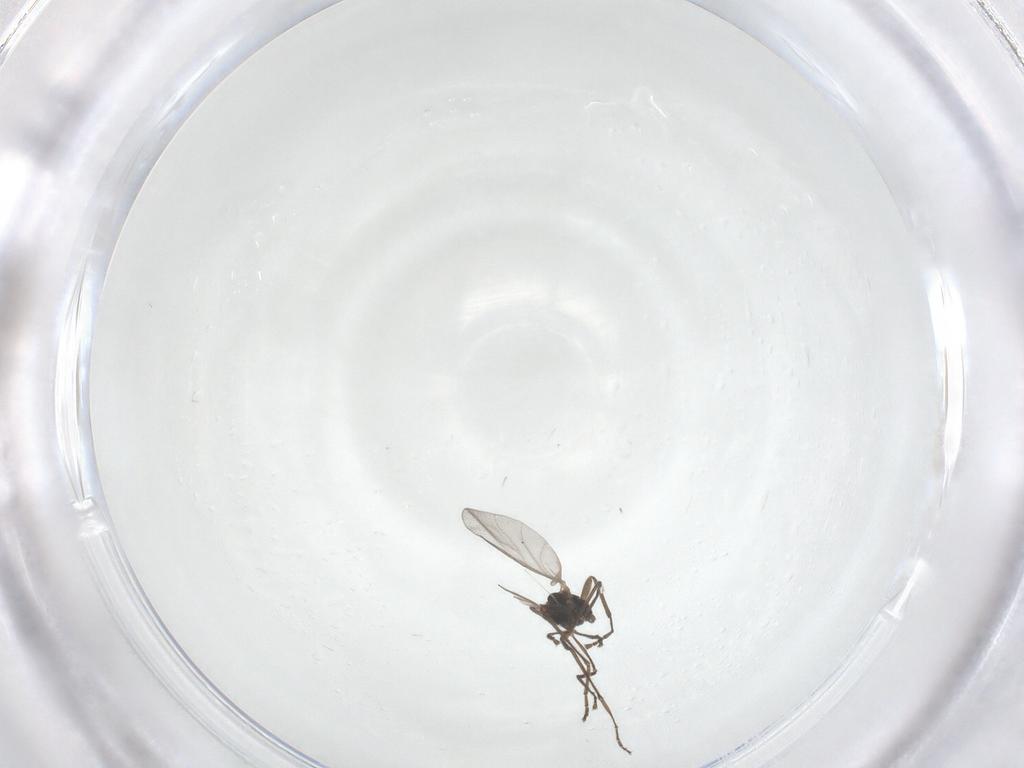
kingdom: Animalia
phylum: Arthropoda
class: Insecta
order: Diptera
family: Cecidomyiidae
